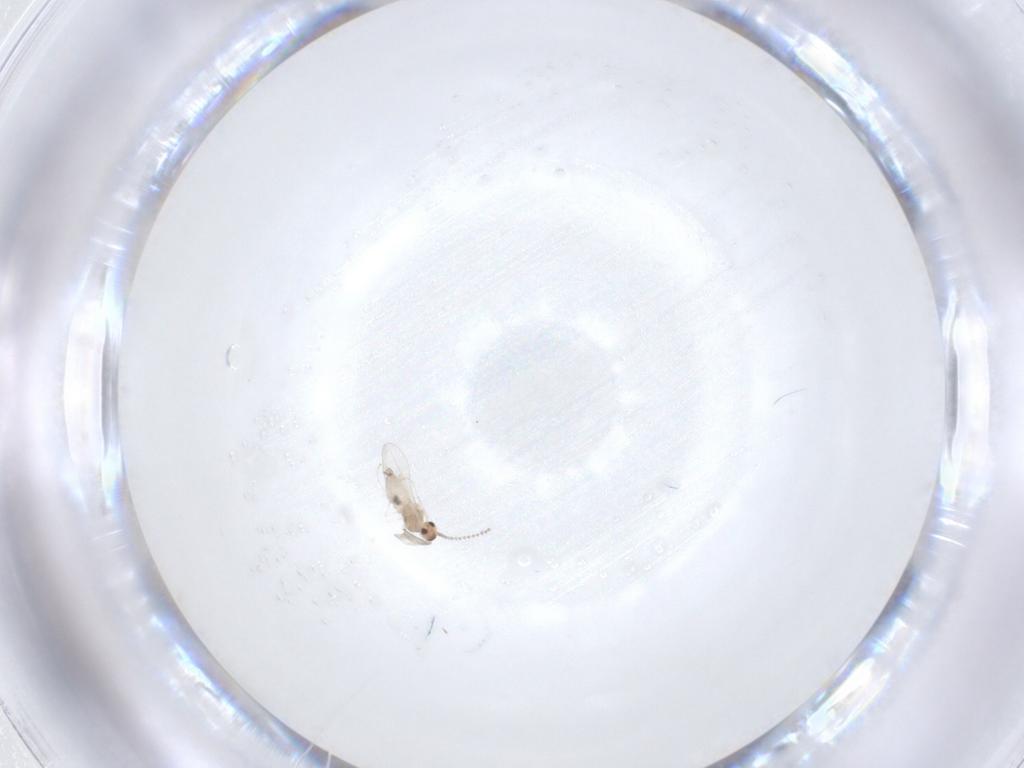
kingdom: Animalia
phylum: Arthropoda
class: Insecta
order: Diptera
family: Cecidomyiidae
